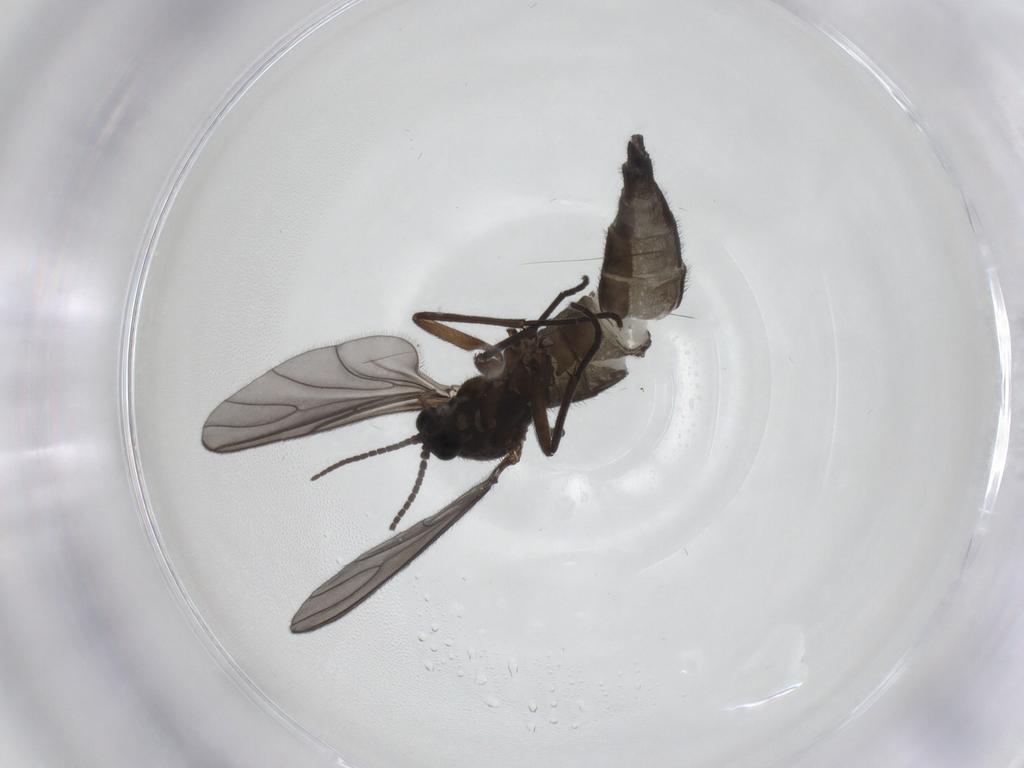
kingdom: Animalia
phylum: Arthropoda
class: Insecta
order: Diptera
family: Sciaridae
